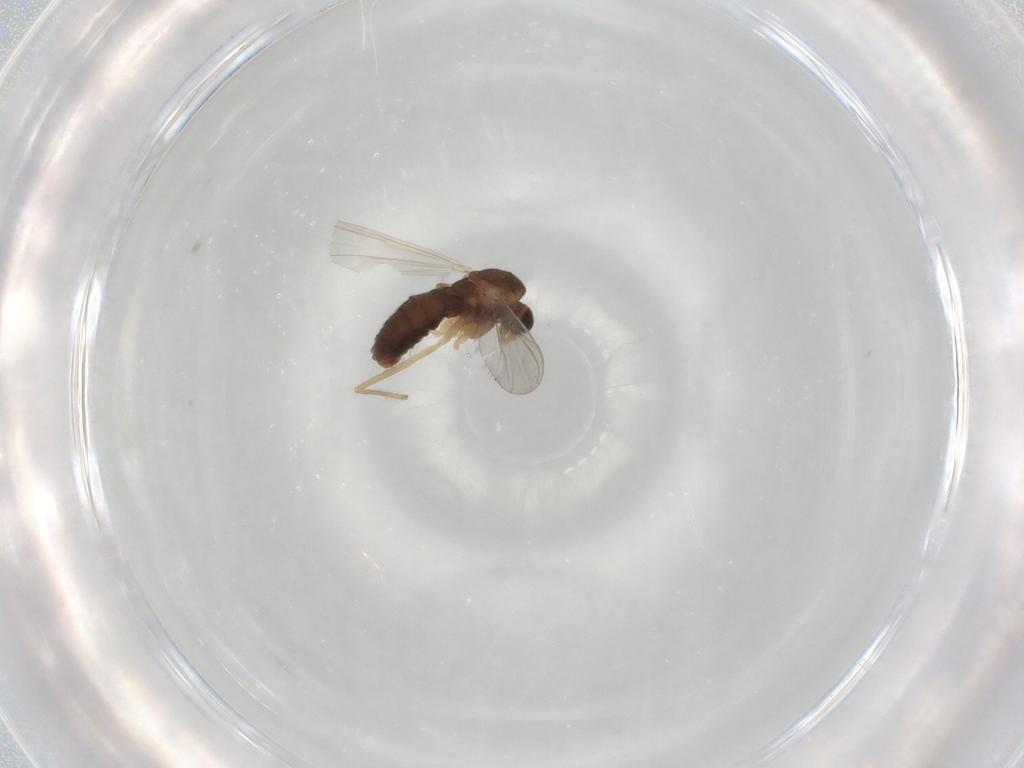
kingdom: Animalia
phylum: Arthropoda
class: Insecta
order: Diptera
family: Chironomidae
